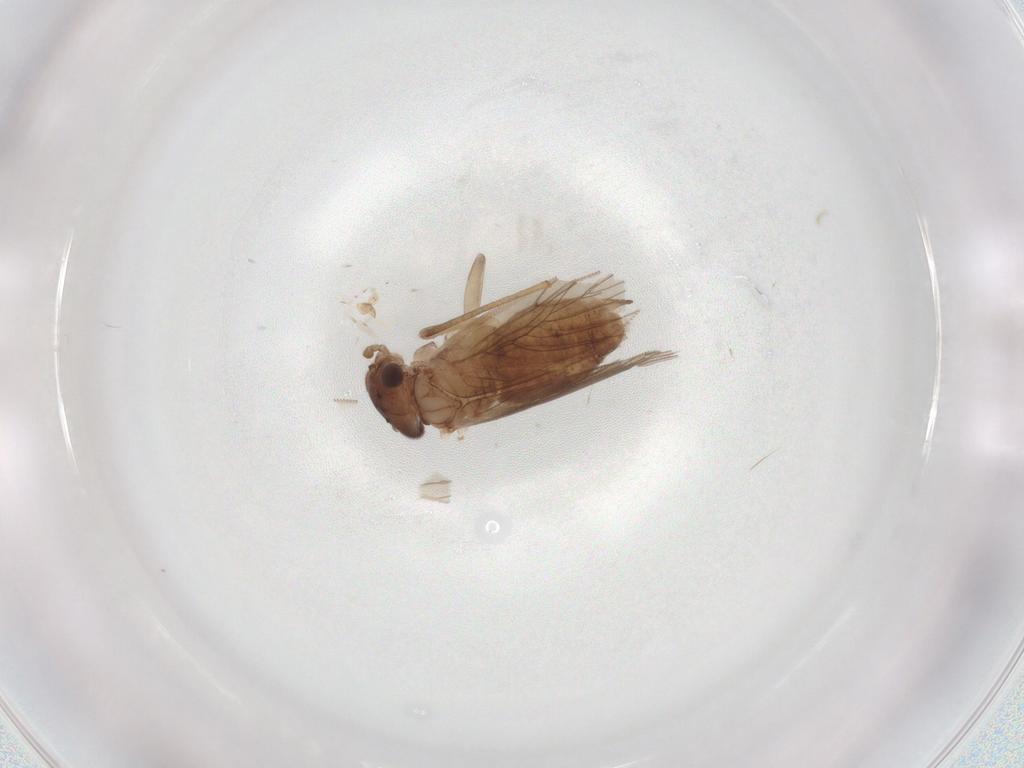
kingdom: Animalia
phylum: Arthropoda
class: Insecta
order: Psocodea
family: Lepidopsocidae
